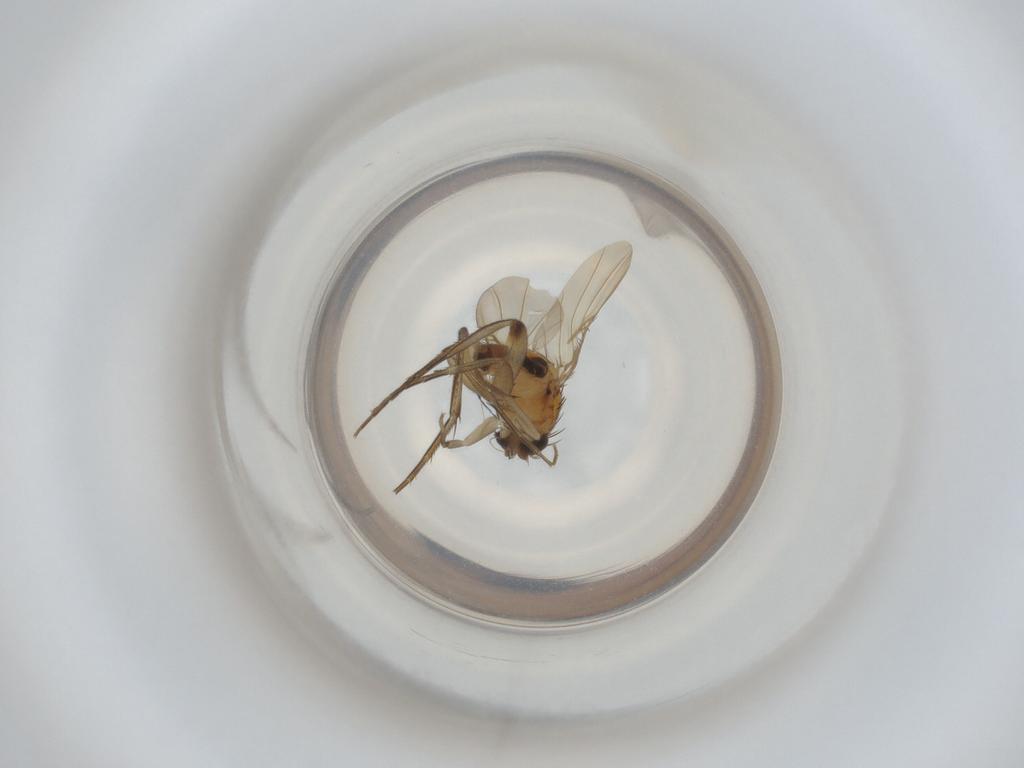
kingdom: Animalia
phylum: Arthropoda
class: Insecta
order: Diptera
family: Phoridae
